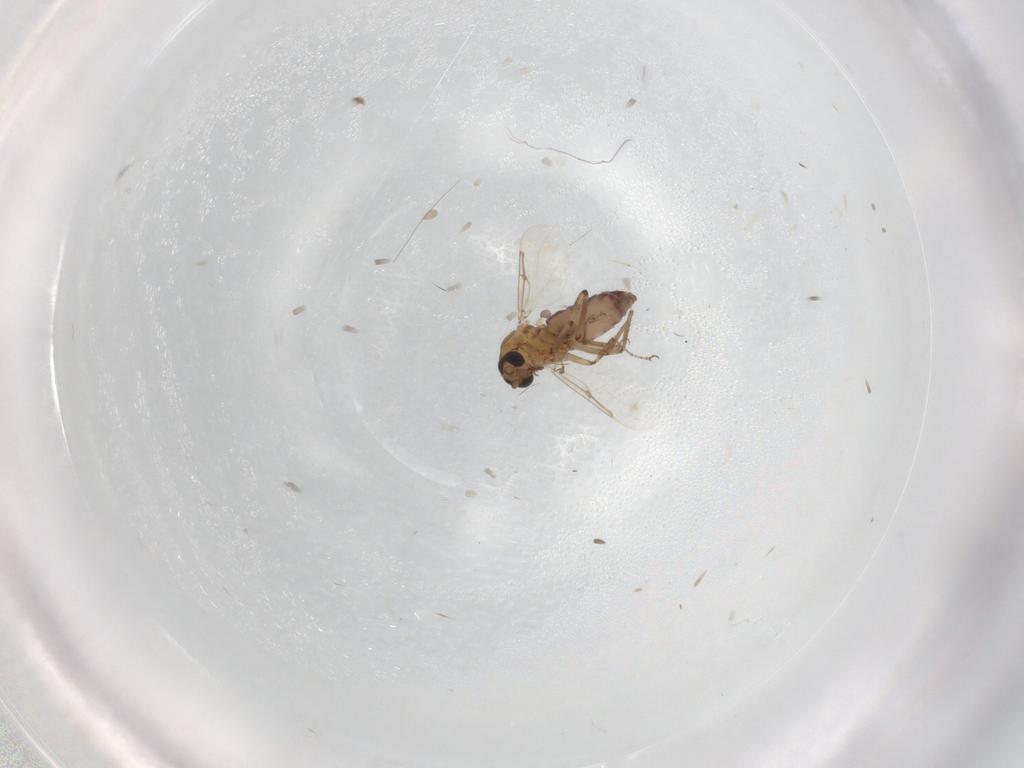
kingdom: Animalia
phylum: Arthropoda
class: Insecta
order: Diptera
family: Ceratopogonidae
